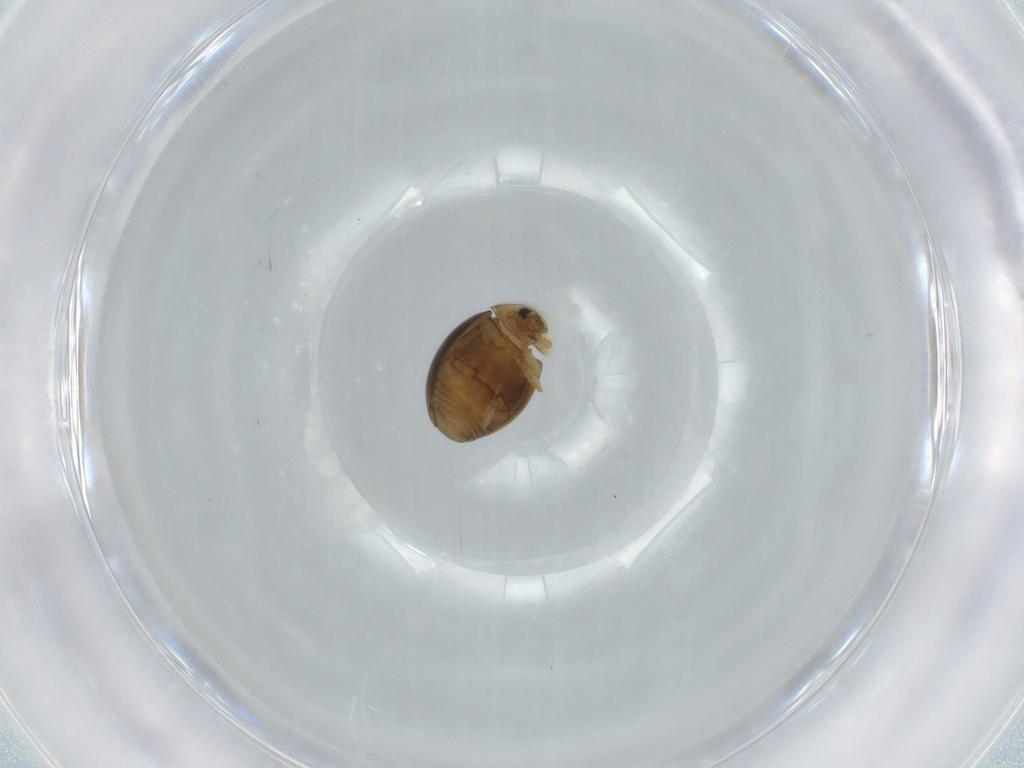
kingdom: Animalia
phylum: Arthropoda
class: Insecta
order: Coleoptera
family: Corylophidae
